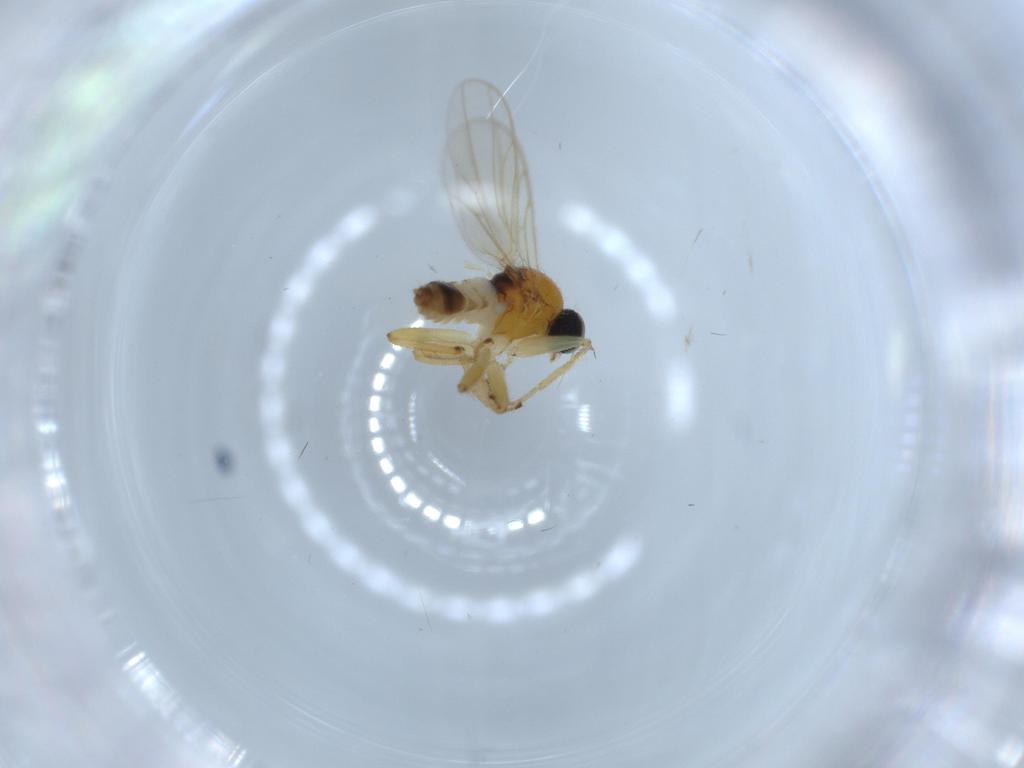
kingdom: Animalia
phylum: Arthropoda
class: Insecta
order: Diptera
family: Hybotidae
